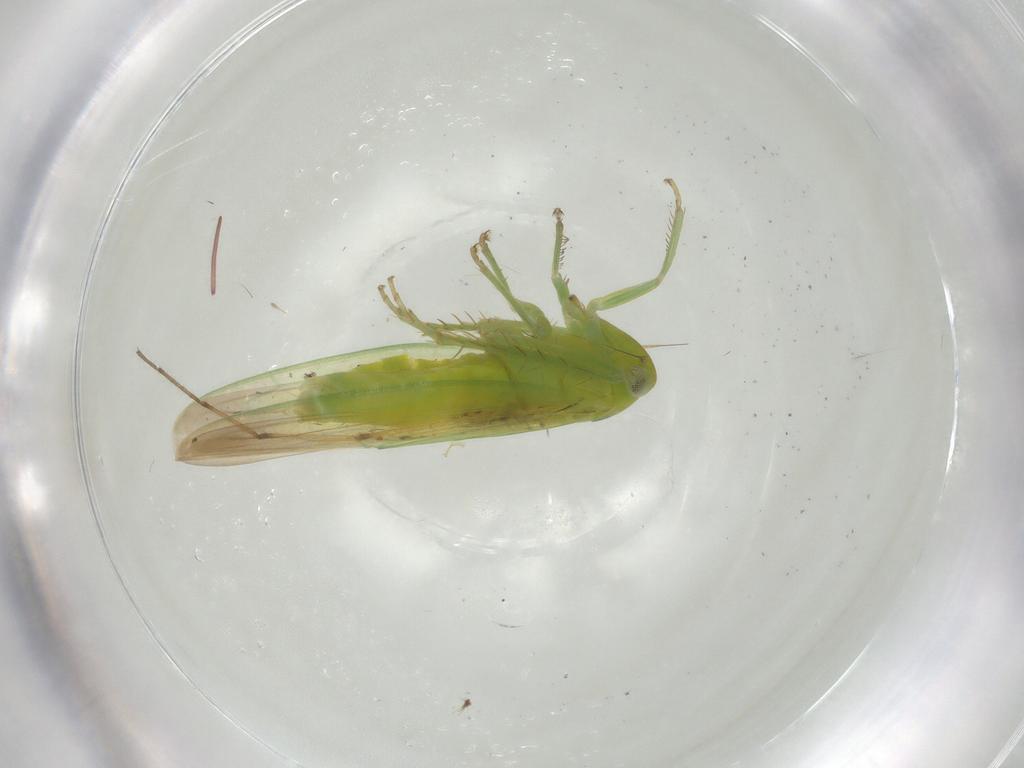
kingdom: Animalia
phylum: Arthropoda
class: Insecta
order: Hemiptera
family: Cicadellidae
